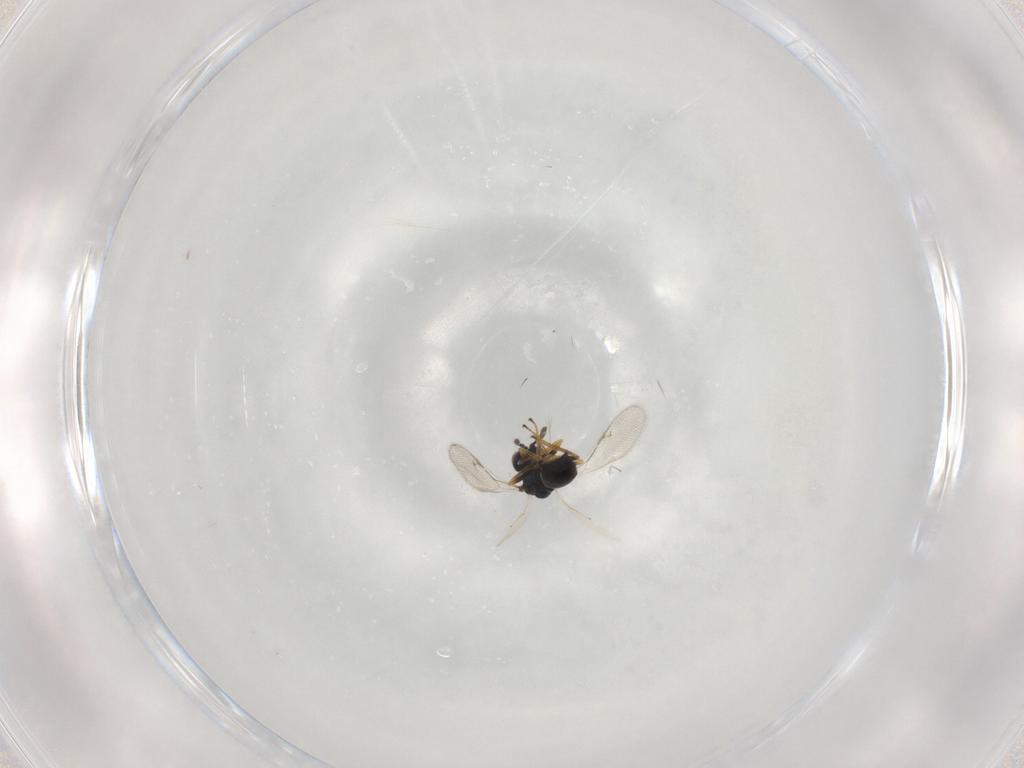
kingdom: Animalia
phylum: Arthropoda
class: Insecta
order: Hymenoptera
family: Chalcidoidea_incertae_sedis
